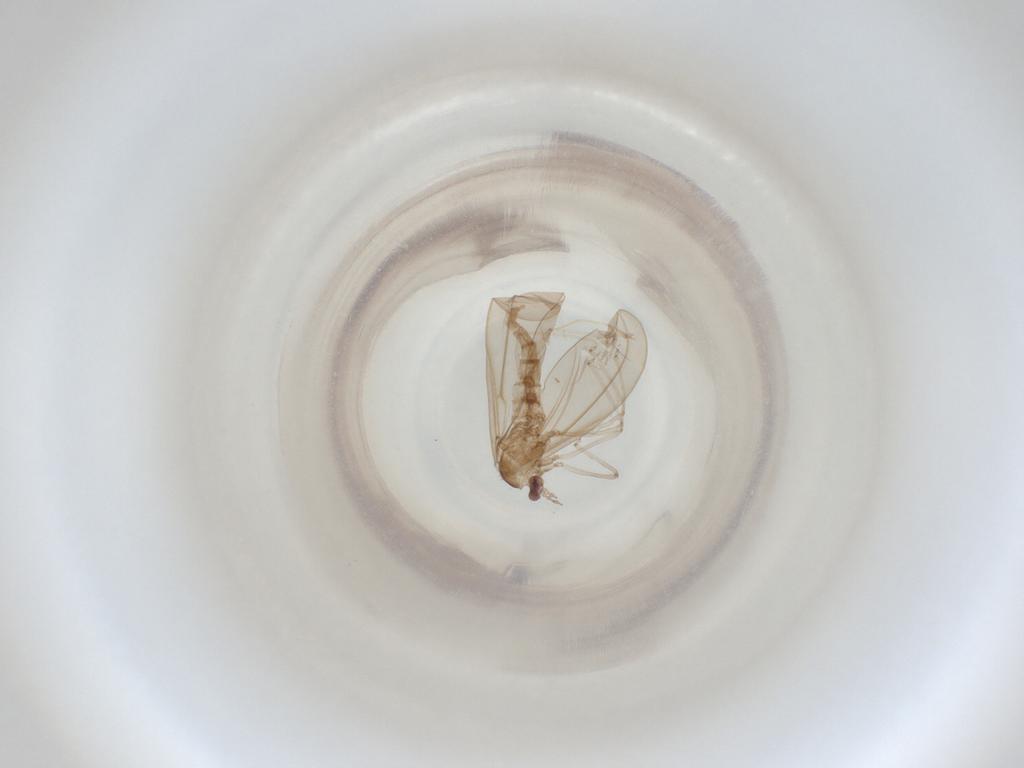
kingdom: Animalia
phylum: Arthropoda
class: Insecta
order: Diptera
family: Cecidomyiidae
